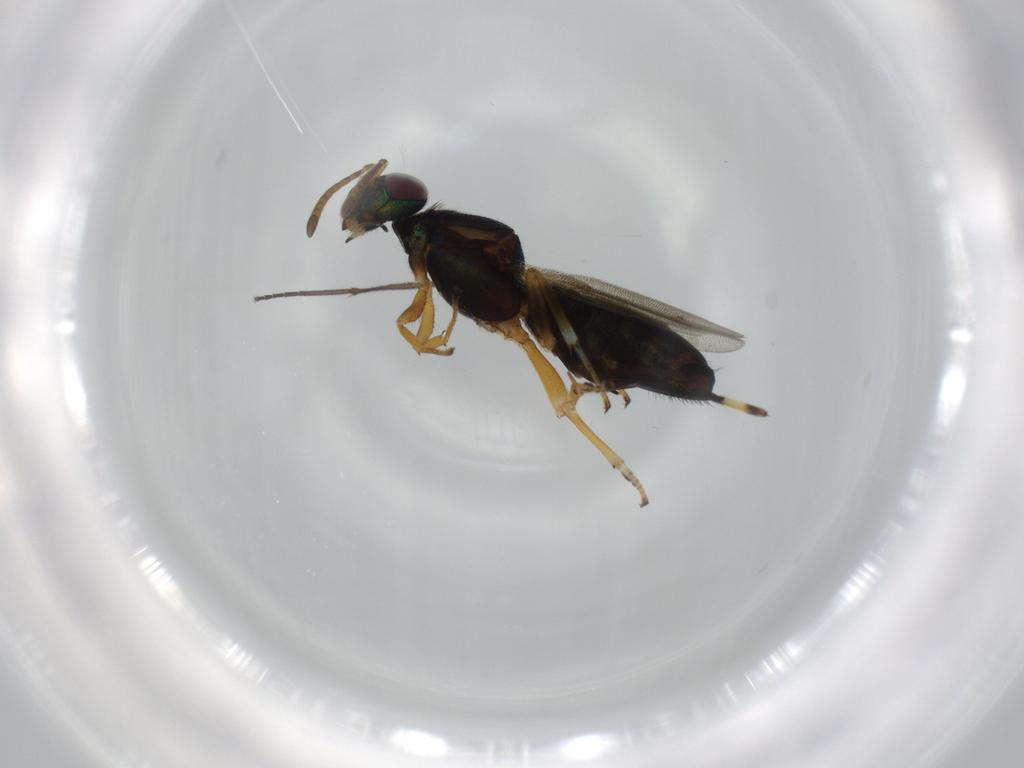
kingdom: Animalia
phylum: Arthropoda
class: Insecta
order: Hymenoptera
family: Eupelmidae
